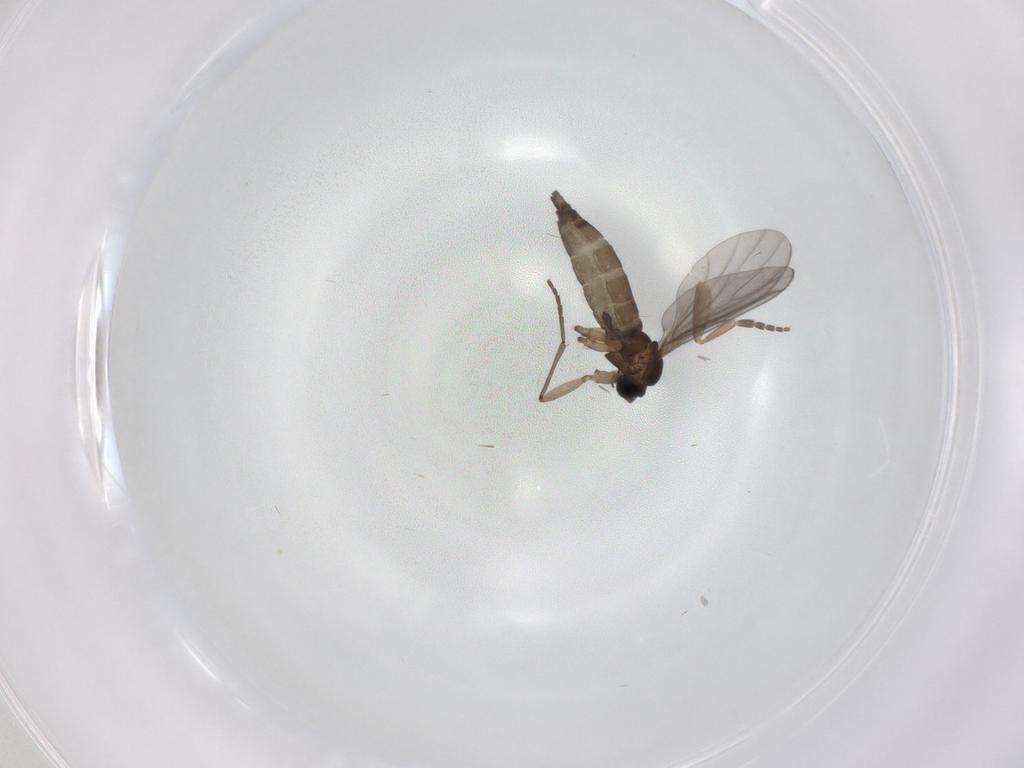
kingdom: Animalia
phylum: Arthropoda
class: Insecta
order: Diptera
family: Sciaridae
